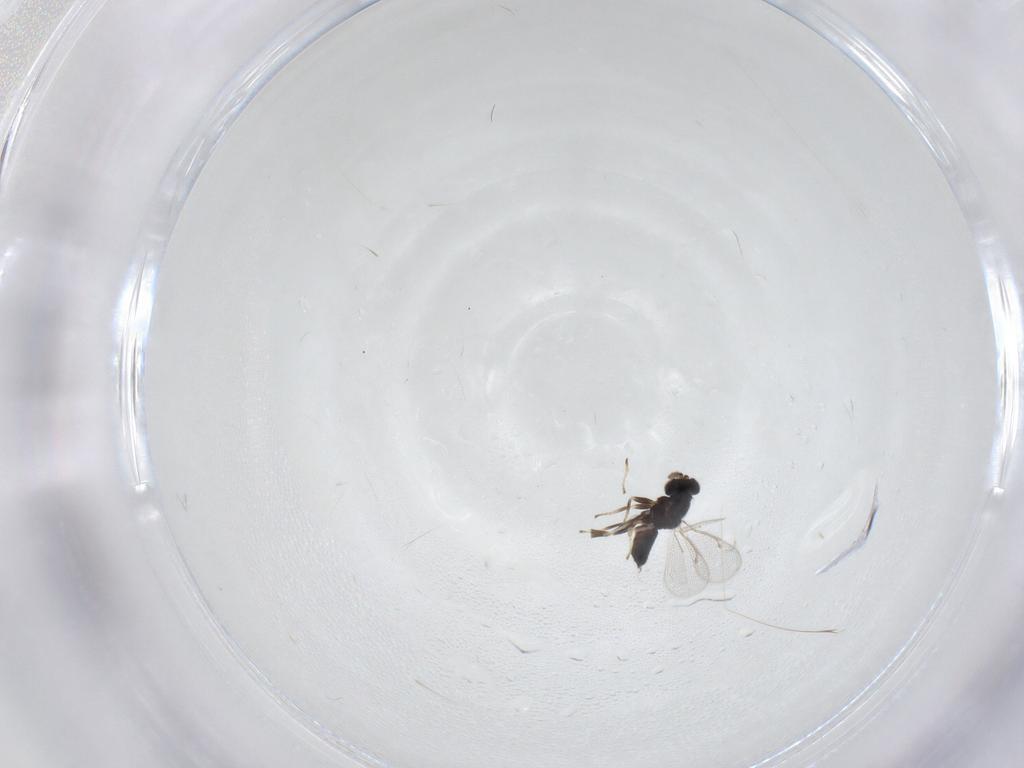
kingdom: Animalia
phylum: Arthropoda
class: Insecta
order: Hymenoptera
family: Eulophidae
